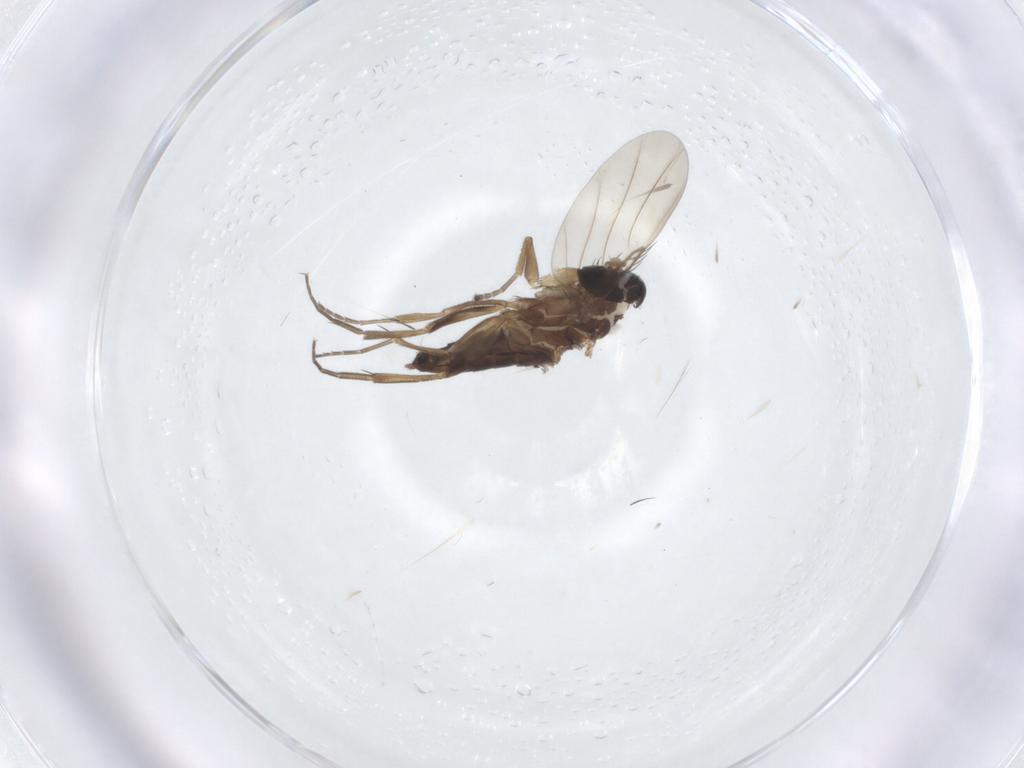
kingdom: Animalia
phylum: Arthropoda
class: Insecta
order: Diptera
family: Phoridae
